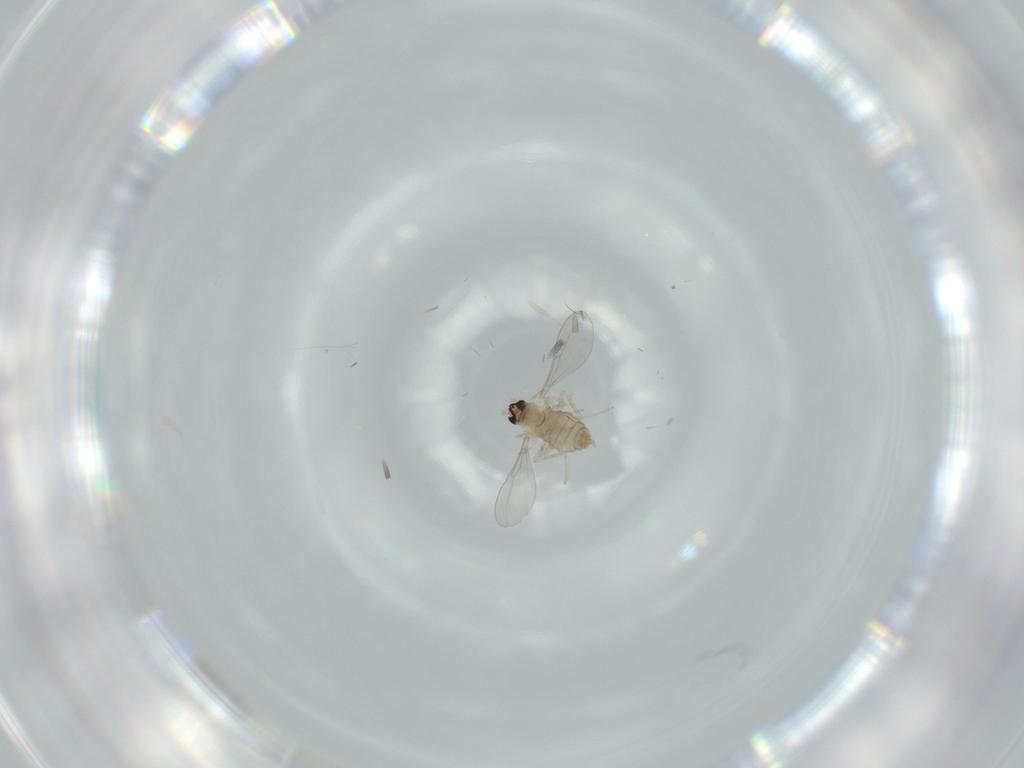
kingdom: Animalia
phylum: Arthropoda
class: Insecta
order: Diptera
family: Cecidomyiidae
